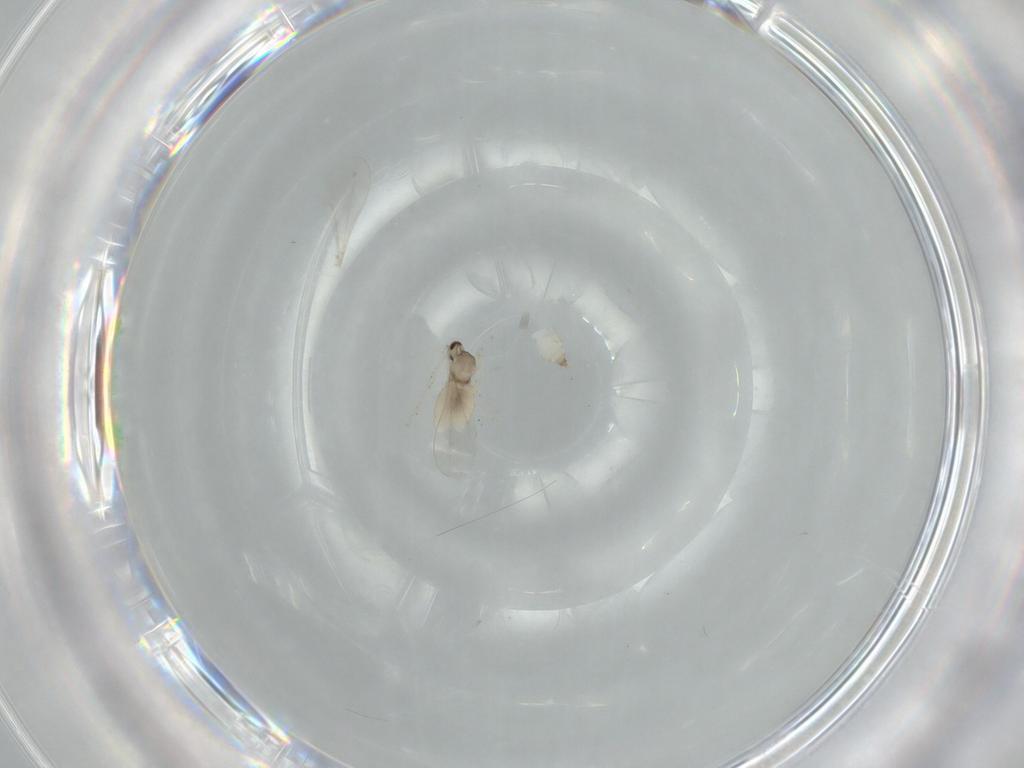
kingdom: Animalia
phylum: Arthropoda
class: Insecta
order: Diptera
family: Cecidomyiidae
